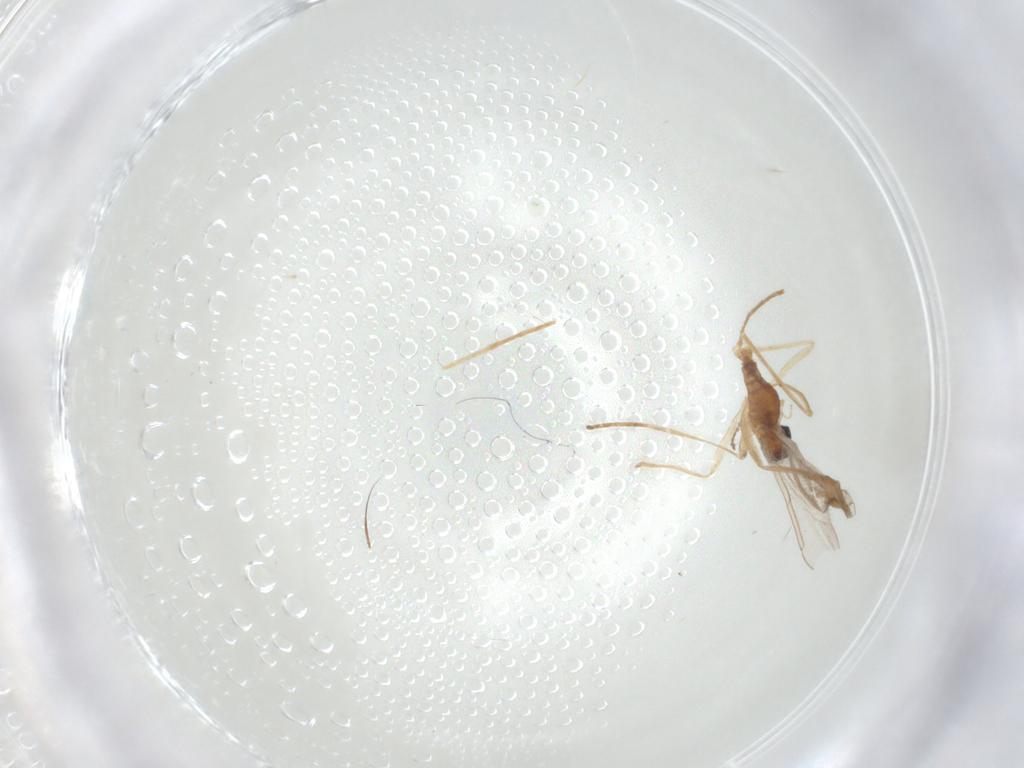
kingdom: Animalia
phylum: Arthropoda
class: Insecta
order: Diptera
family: Cecidomyiidae
